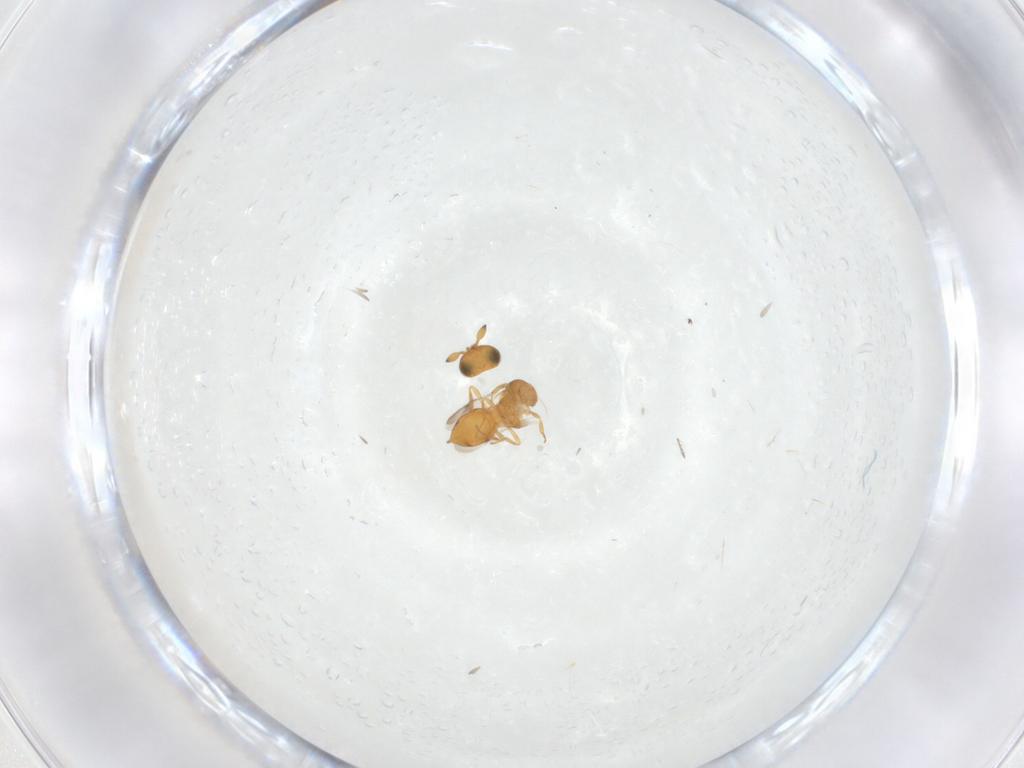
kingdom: Animalia
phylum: Arthropoda
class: Insecta
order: Hymenoptera
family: Scelionidae
